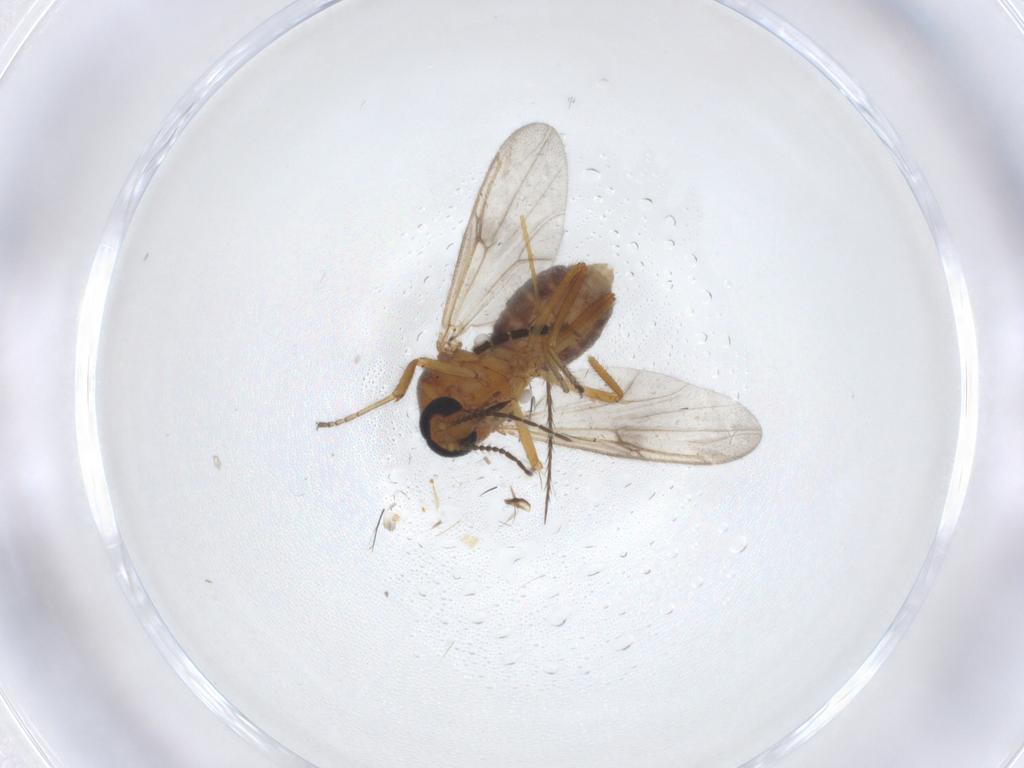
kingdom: Animalia
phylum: Arthropoda
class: Insecta
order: Diptera
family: Ceratopogonidae
